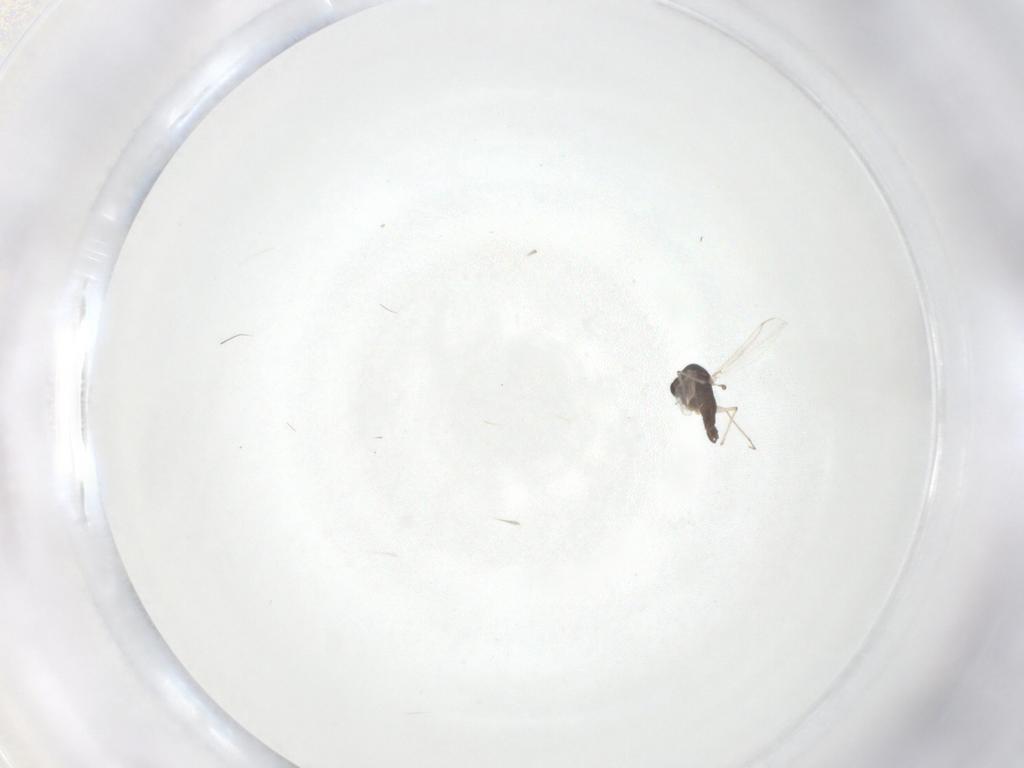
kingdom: Animalia
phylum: Arthropoda
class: Insecta
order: Diptera
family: Chironomidae
